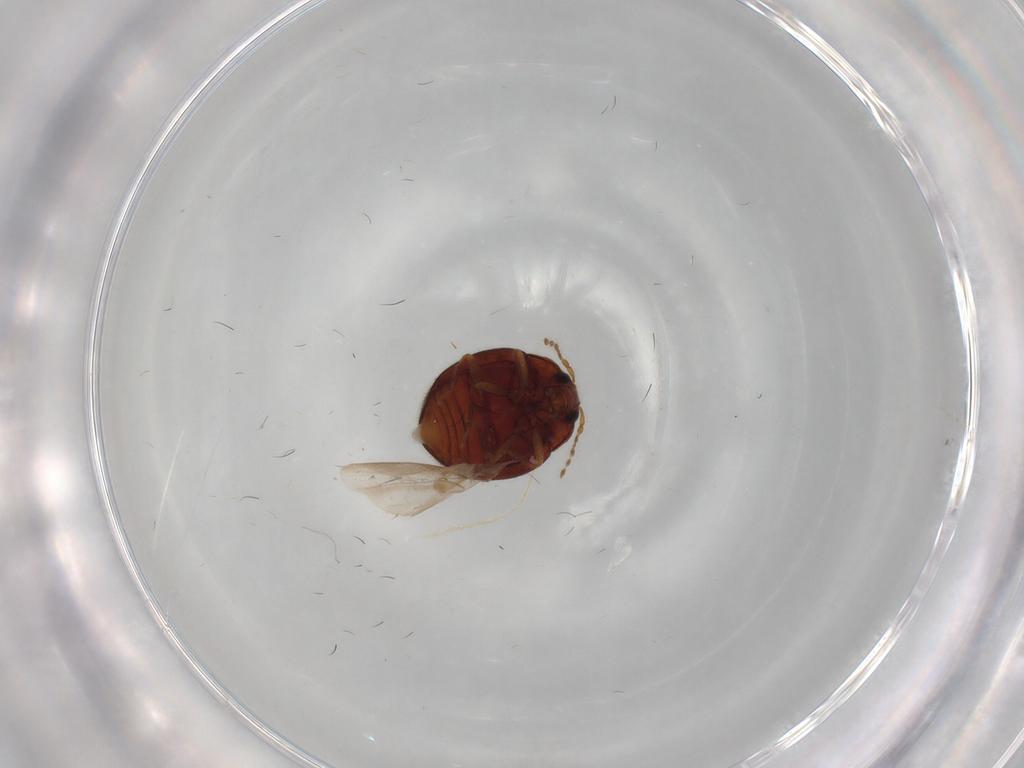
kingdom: Animalia
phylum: Arthropoda
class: Insecta
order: Coleoptera
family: Anamorphidae
